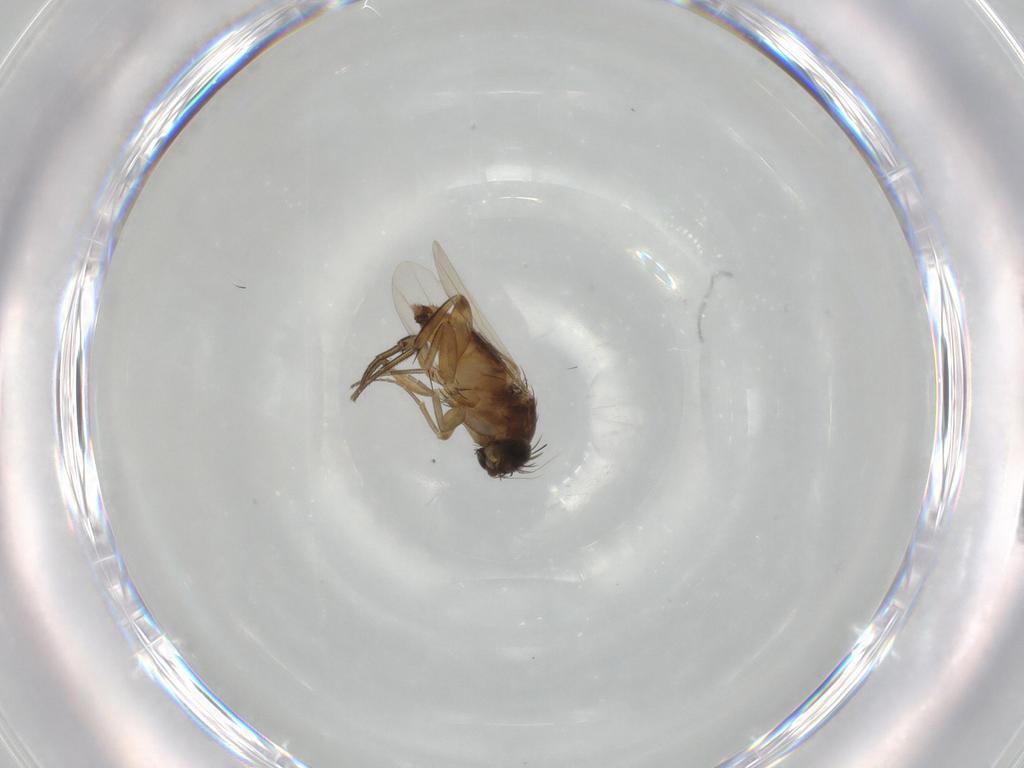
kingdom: Animalia
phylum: Arthropoda
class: Insecta
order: Diptera
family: Phoridae
